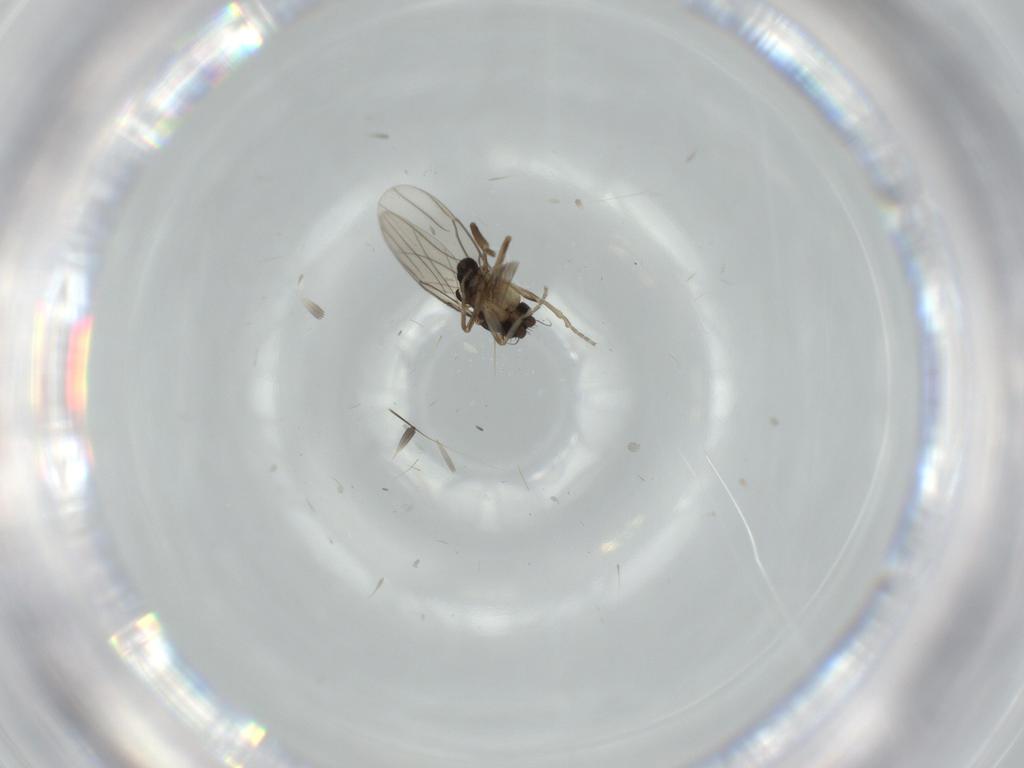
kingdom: Animalia
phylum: Arthropoda
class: Insecta
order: Diptera
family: Phoridae
